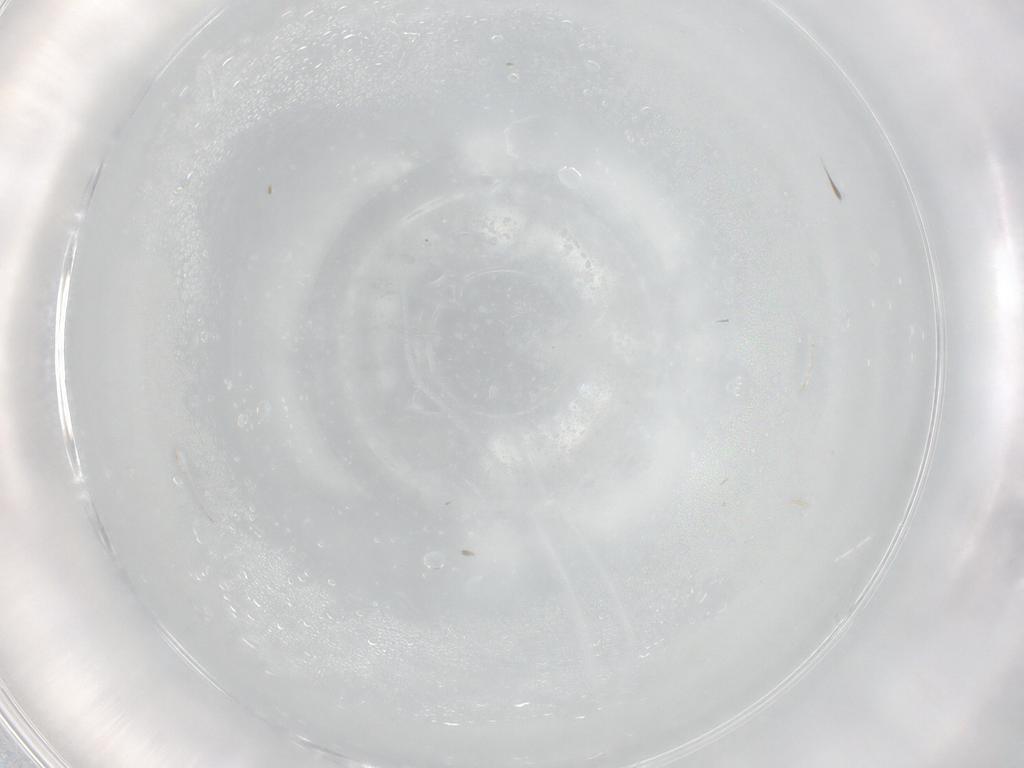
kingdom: Animalia
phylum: Arthropoda
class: Collembola
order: Symphypleona
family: Bourletiellidae
